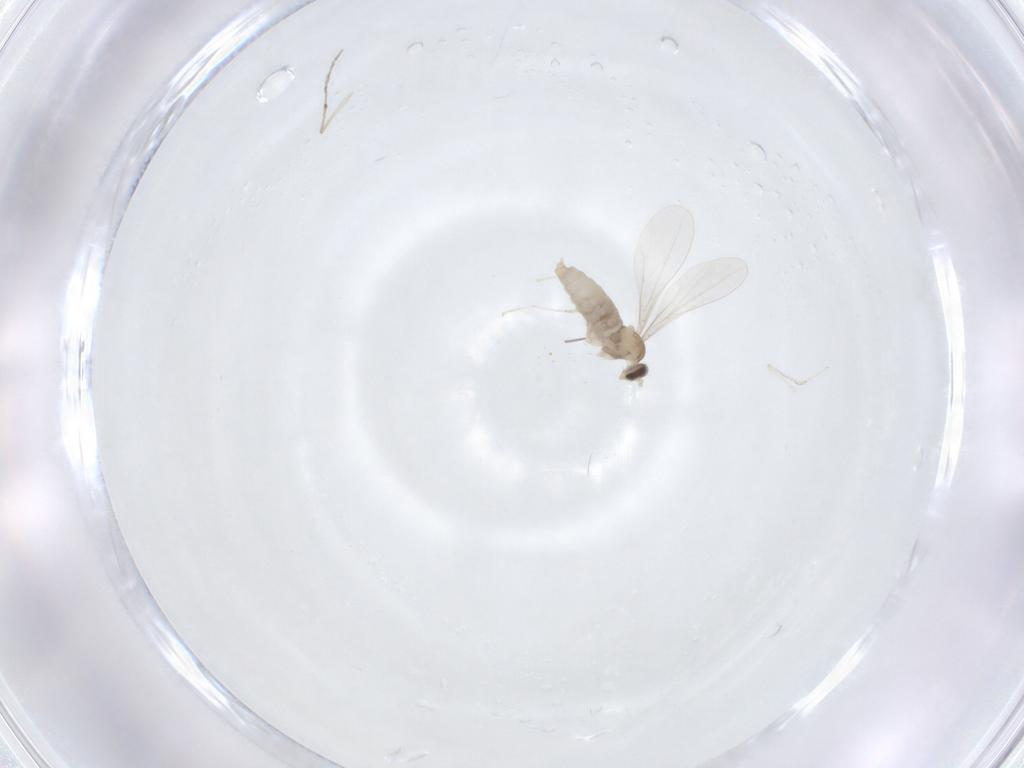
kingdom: Animalia
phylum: Arthropoda
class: Insecta
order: Diptera
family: Cecidomyiidae
